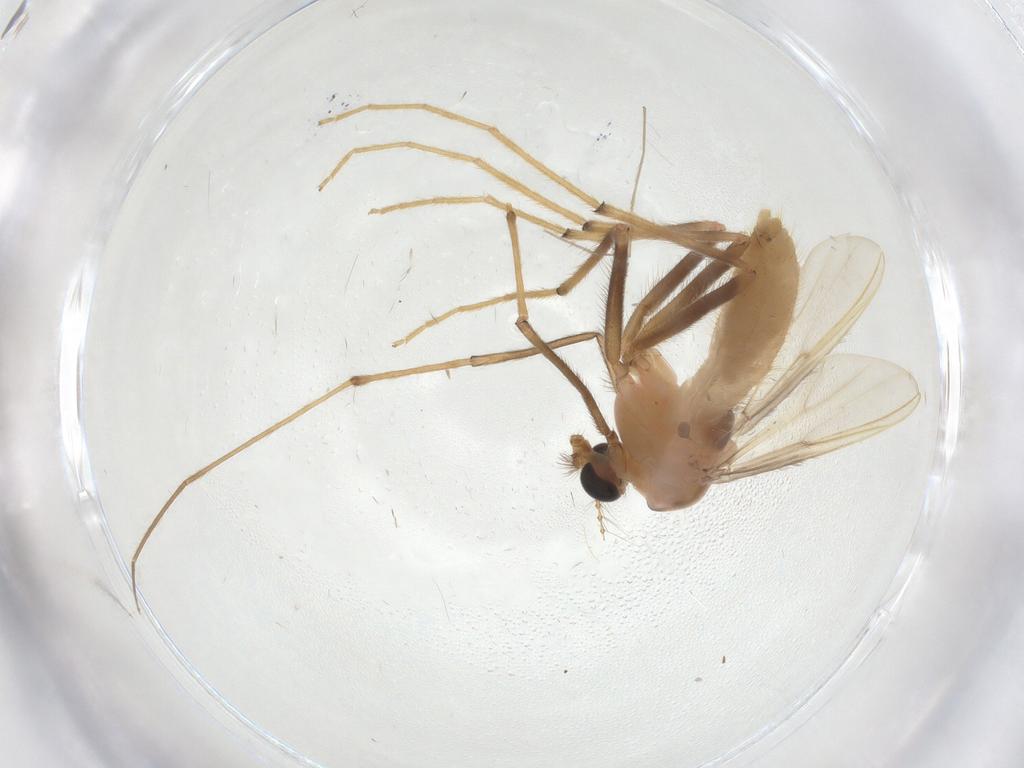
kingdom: Animalia
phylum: Arthropoda
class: Insecta
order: Diptera
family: Chironomidae
